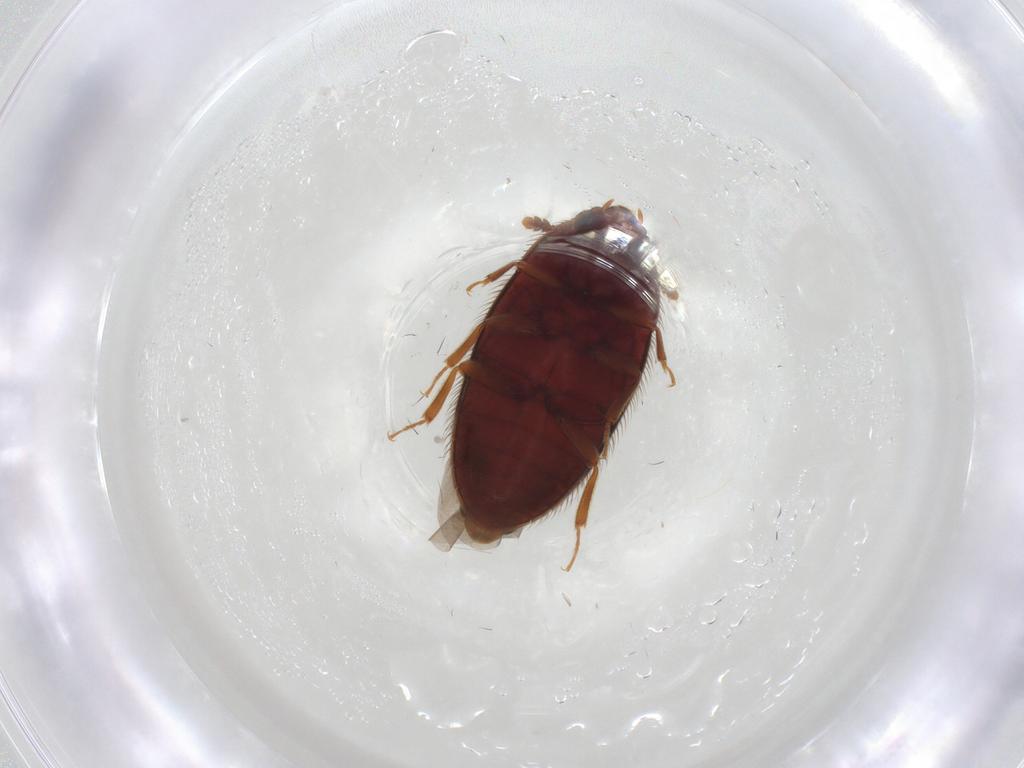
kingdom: Animalia
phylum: Arthropoda
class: Insecta
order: Coleoptera
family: Biphyllidae
